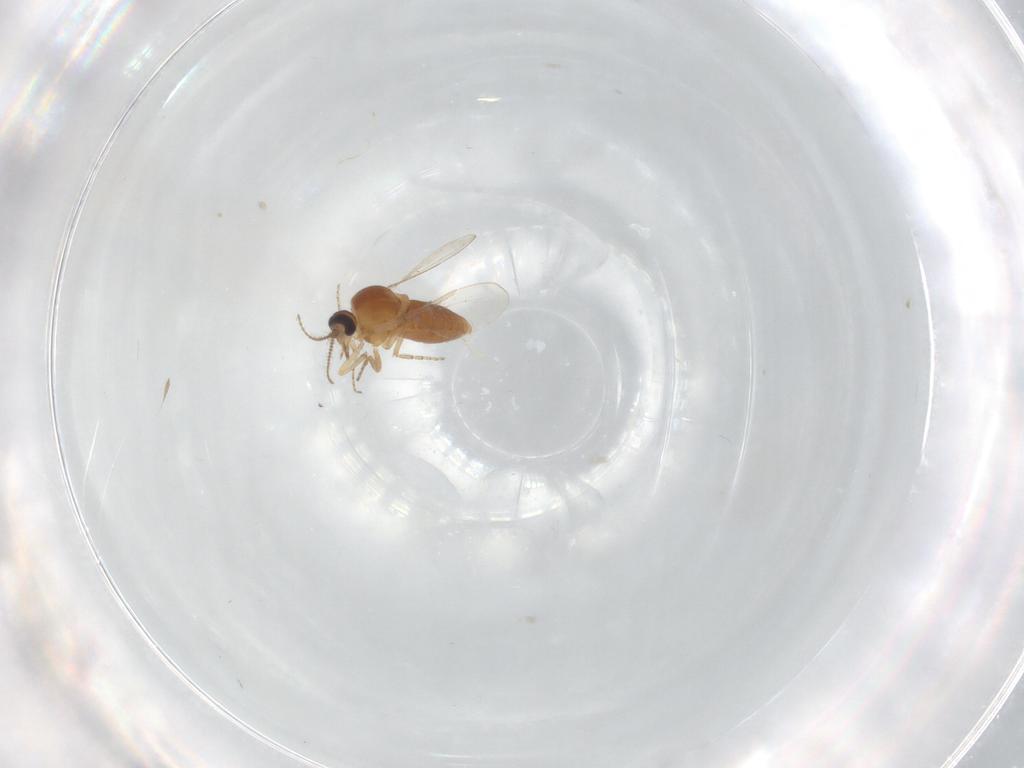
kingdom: Animalia
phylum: Arthropoda
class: Insecta
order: Diptera
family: Ceratopogonidae
